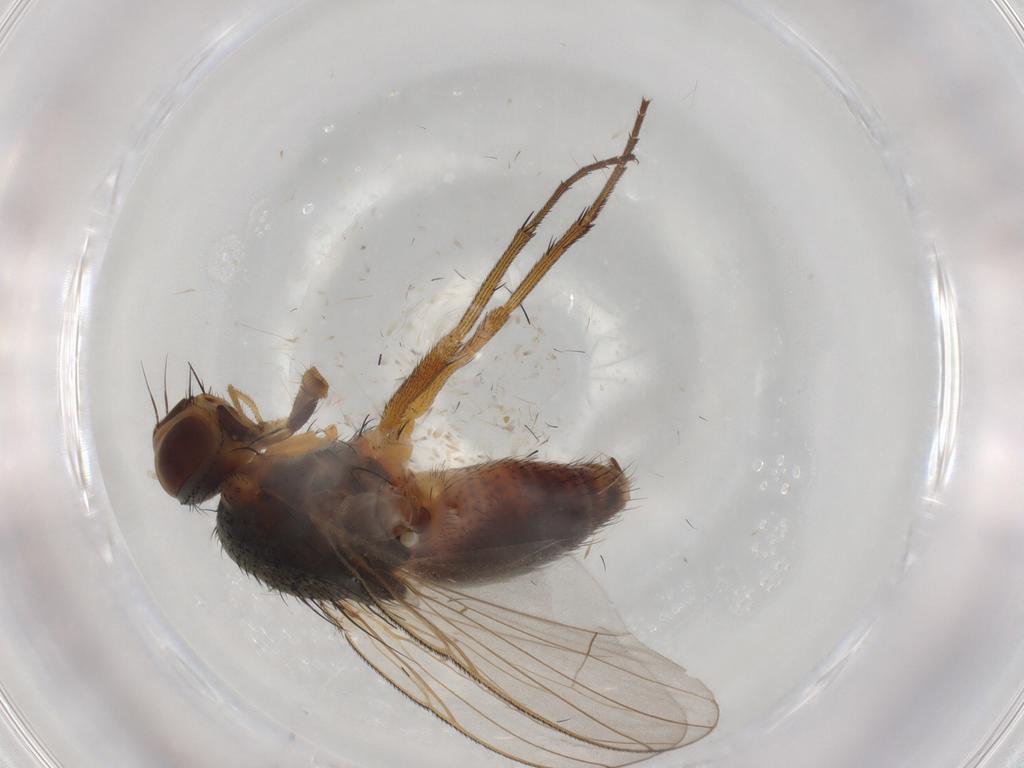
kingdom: Animalia
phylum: Arthropoda
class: Insecta
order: Diptera
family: Muscidae
